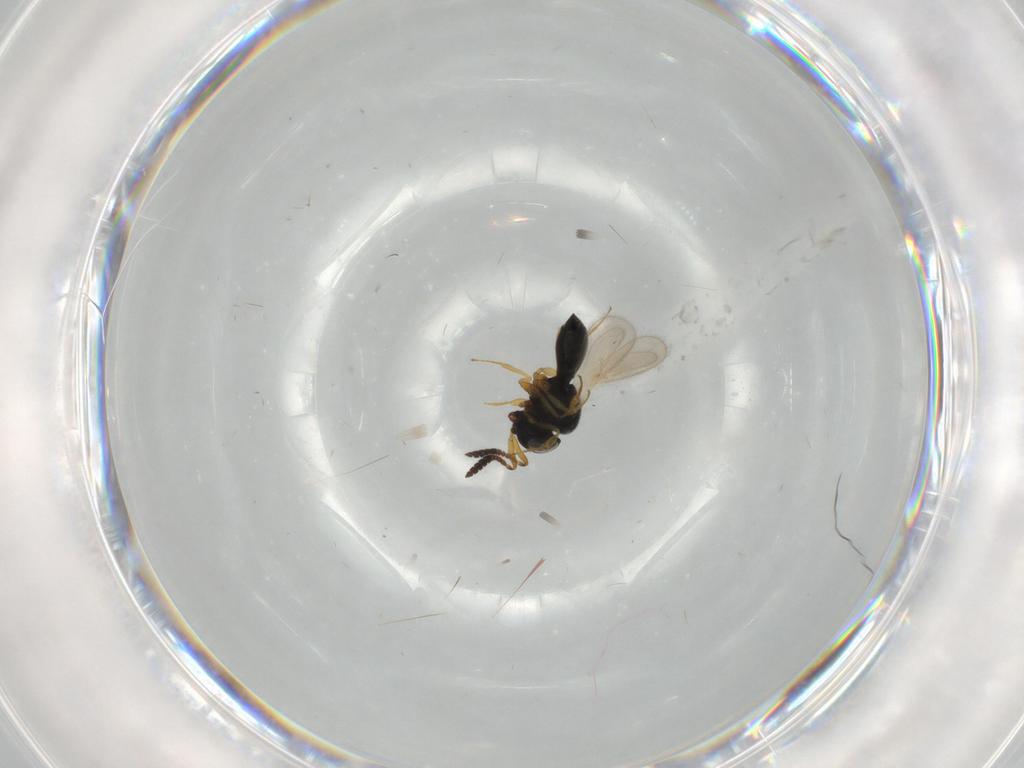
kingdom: Animalia
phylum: Arthropoda
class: Insecta
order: Hymenoptera
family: Scelionidae
